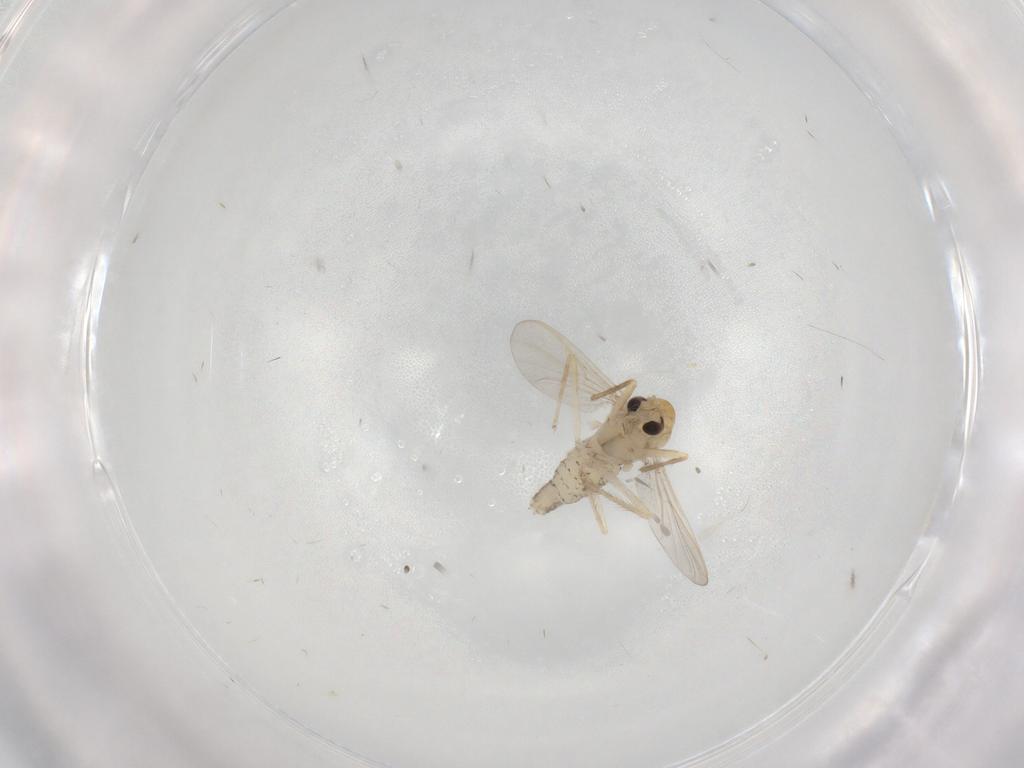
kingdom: Animalia
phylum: Arthropoda
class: Insecta
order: Diptera
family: Chironomidae
